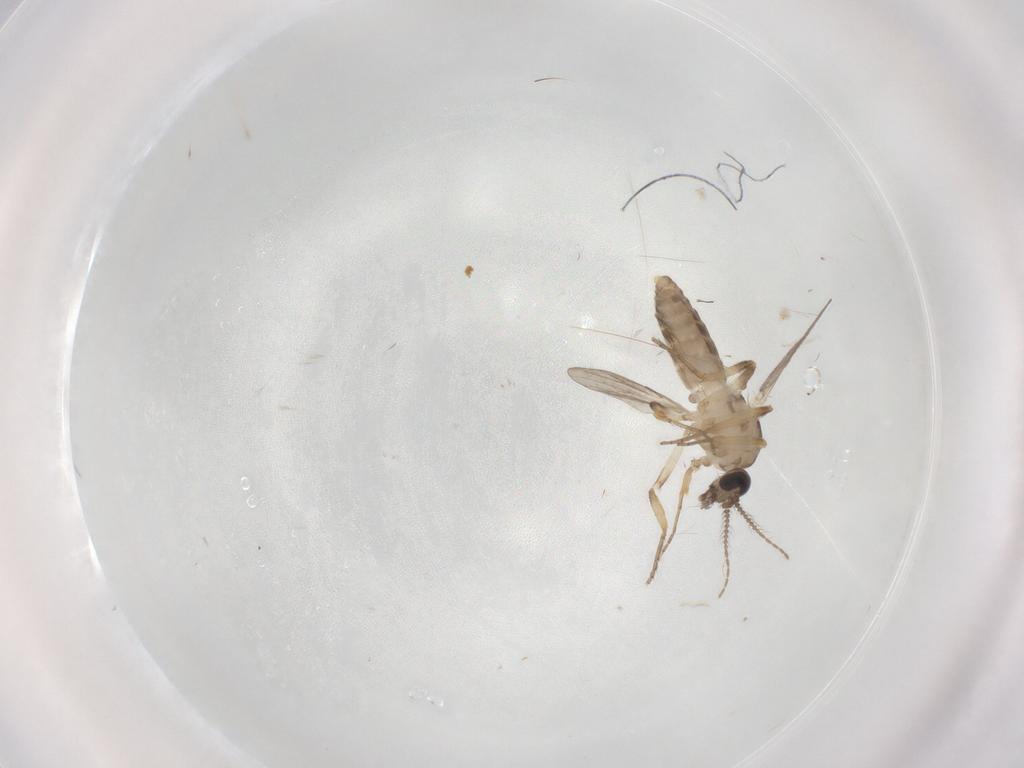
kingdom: Animalia
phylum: Arthropoda
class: Insecta
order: Diptera
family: Ceratopogonidae
